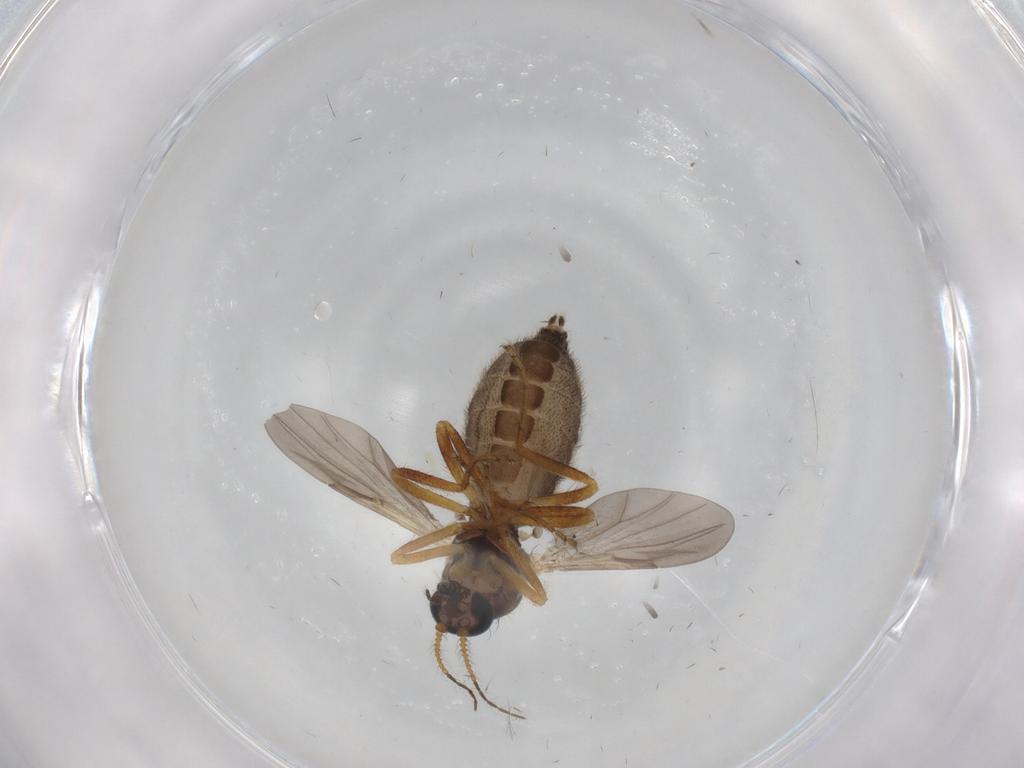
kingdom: Animalia
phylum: Arthropoda
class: Insecta
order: Diptera
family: Ceratopogonidae
